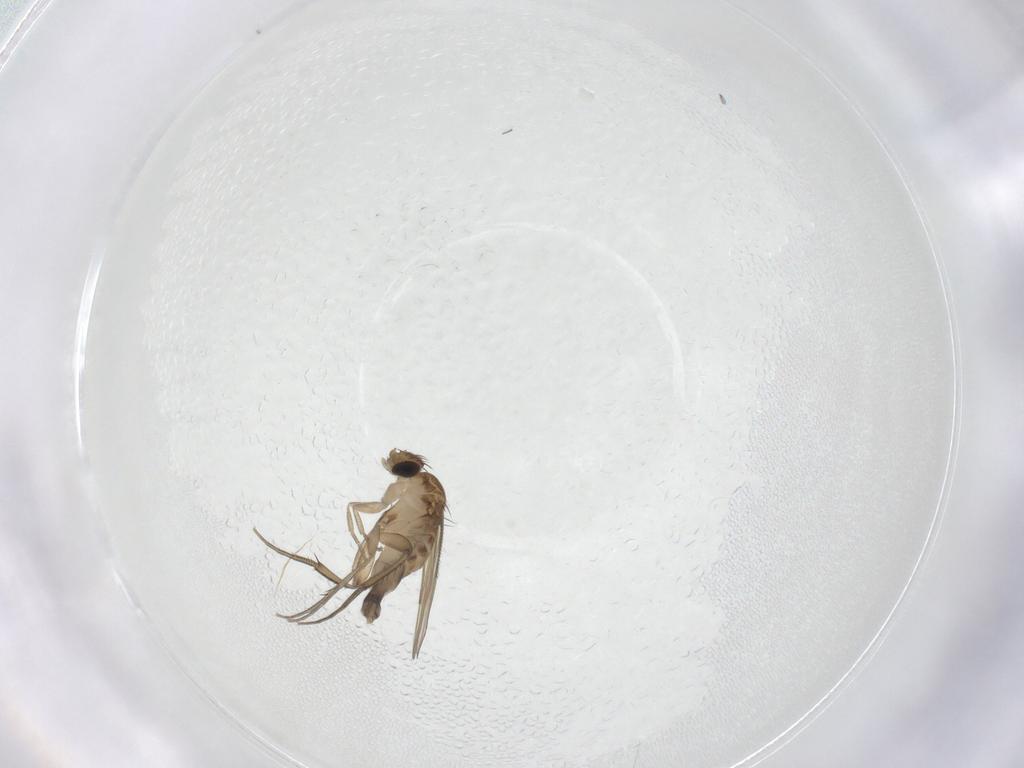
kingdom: Animalia
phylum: Arthropoda
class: Insecta
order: Diptera
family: Phoridae
